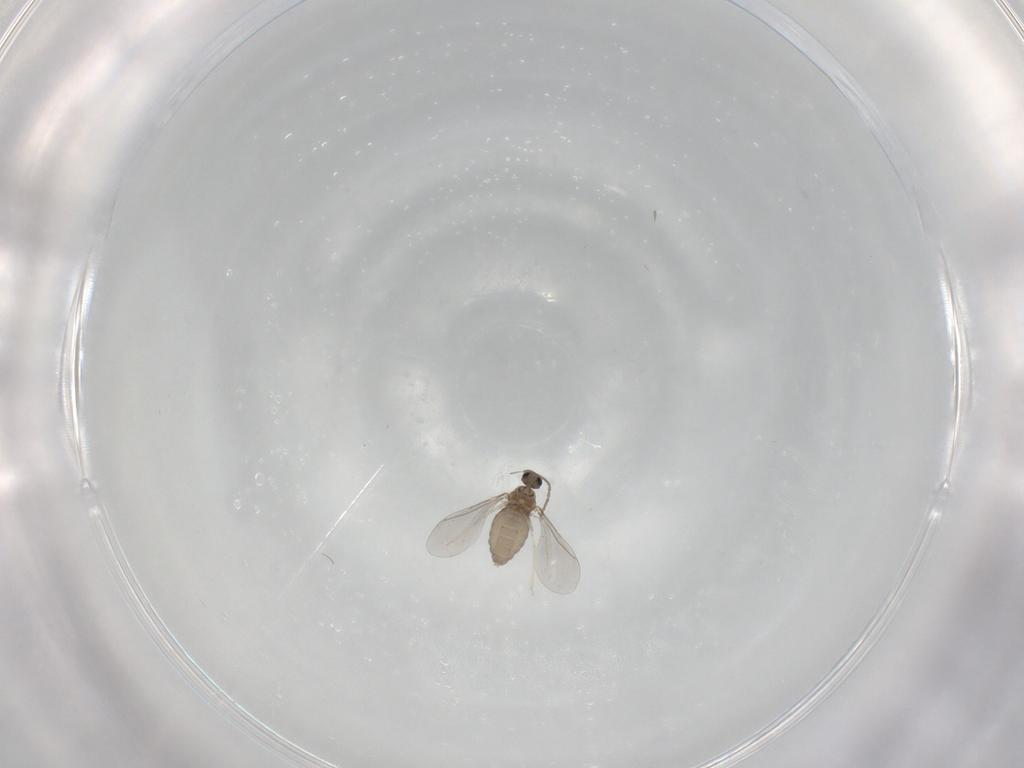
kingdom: Animalia
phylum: Arthropoda
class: Insecta
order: Diptera
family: Cecidomyiidae
